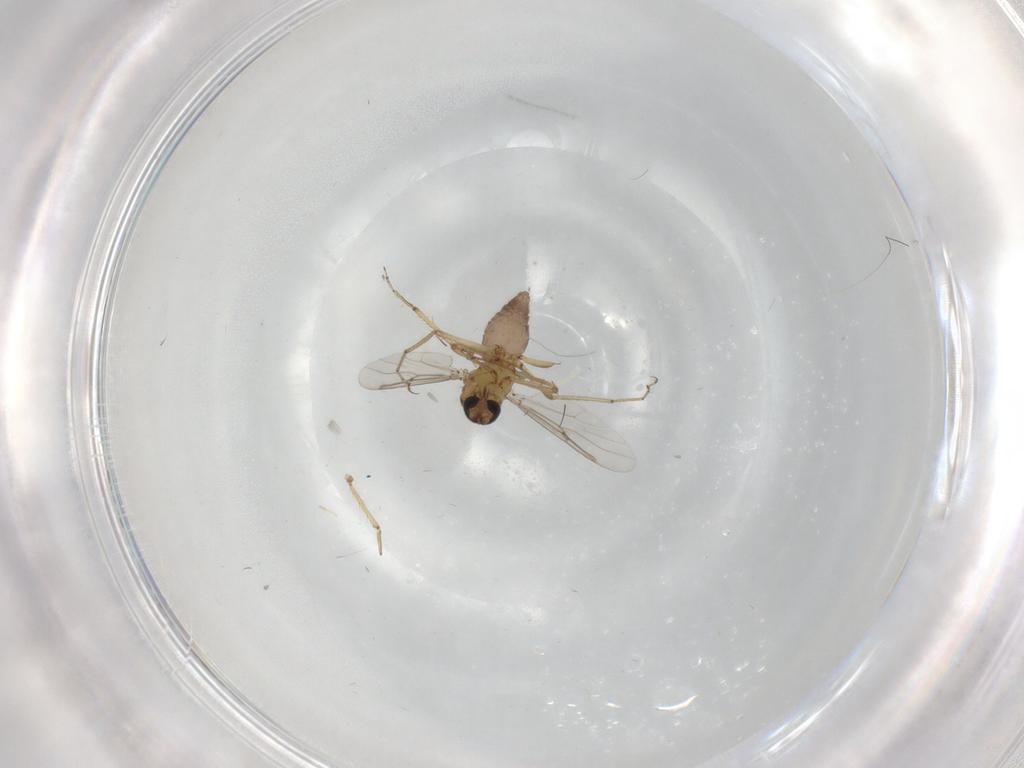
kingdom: Animalia
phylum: Arthropoda
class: Insecta
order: Diptera
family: Ceratopogonidae
